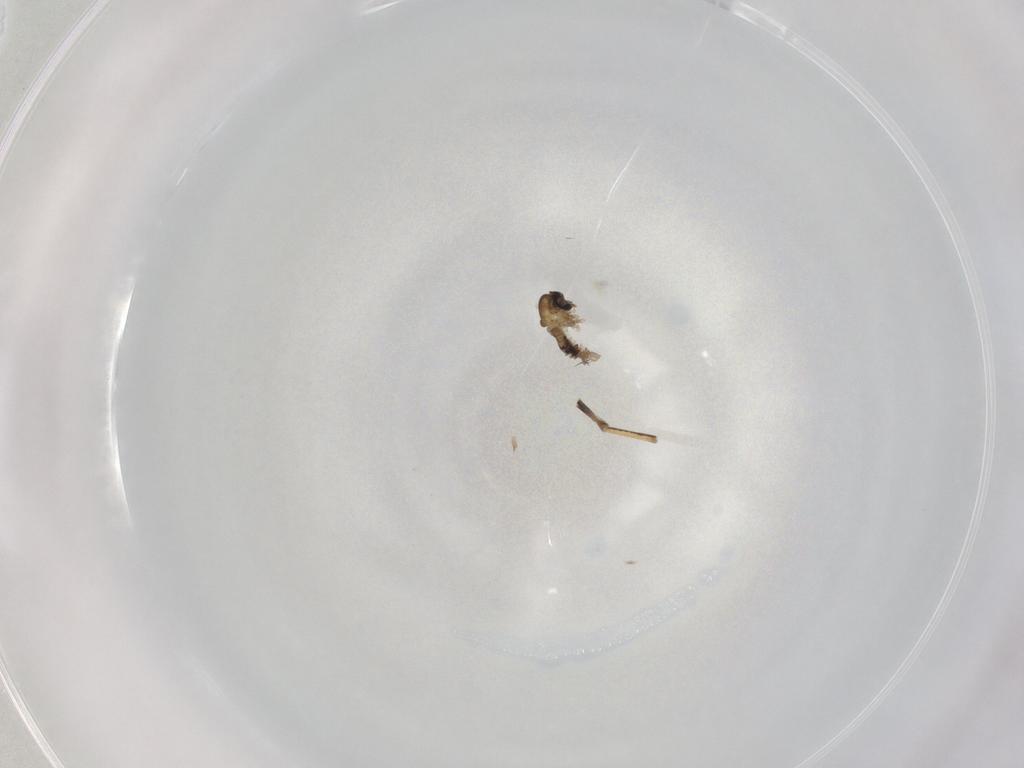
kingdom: Animalia
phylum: Arthropoda
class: Insecta
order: Diptera
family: Psychodidae
